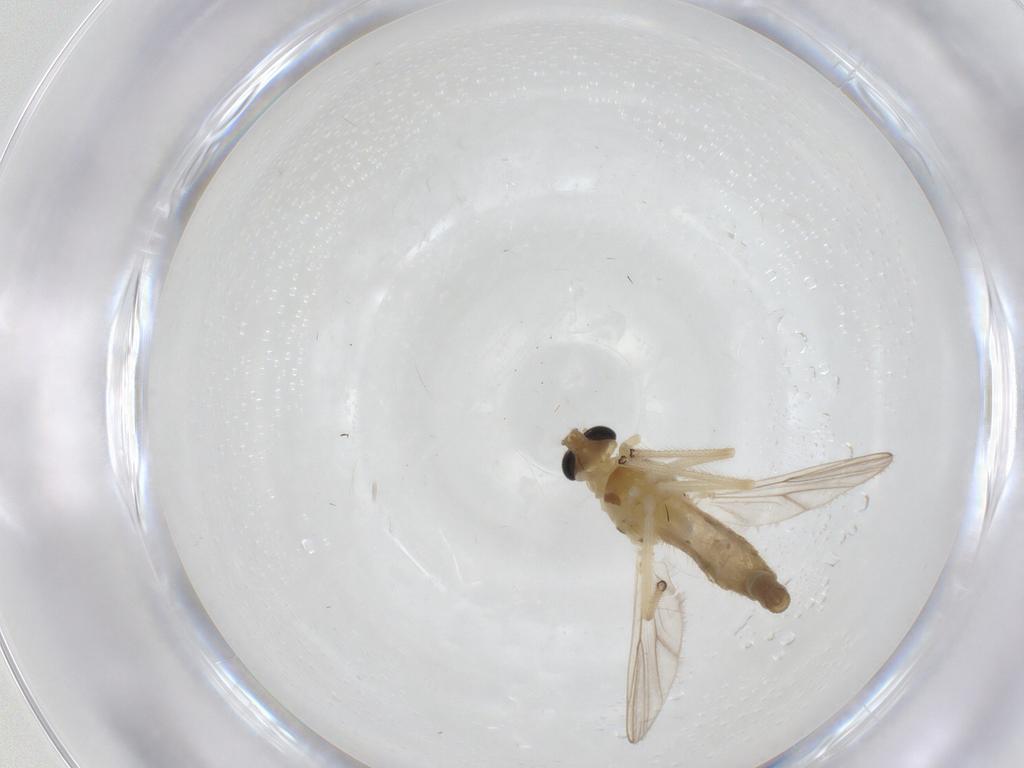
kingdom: Animalia
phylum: Arthropoda
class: Insecta
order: Diptera
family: Chironomidae
